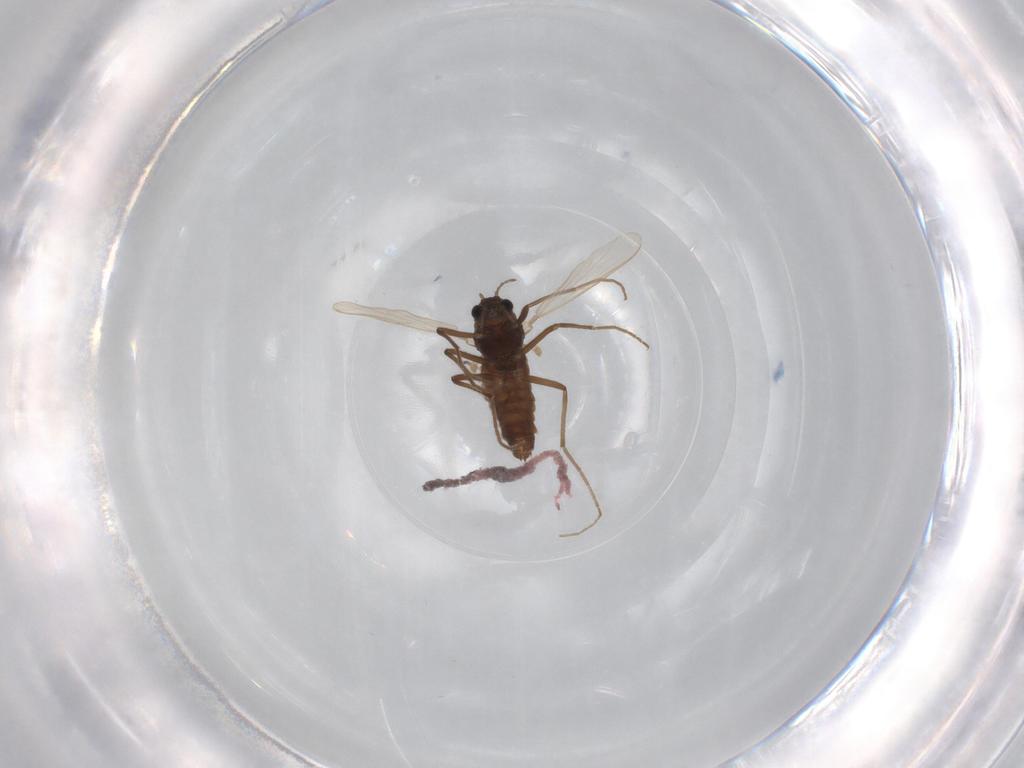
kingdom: Animalia
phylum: Arthropoda
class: Insecta
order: Diptera
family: Chironomidae
